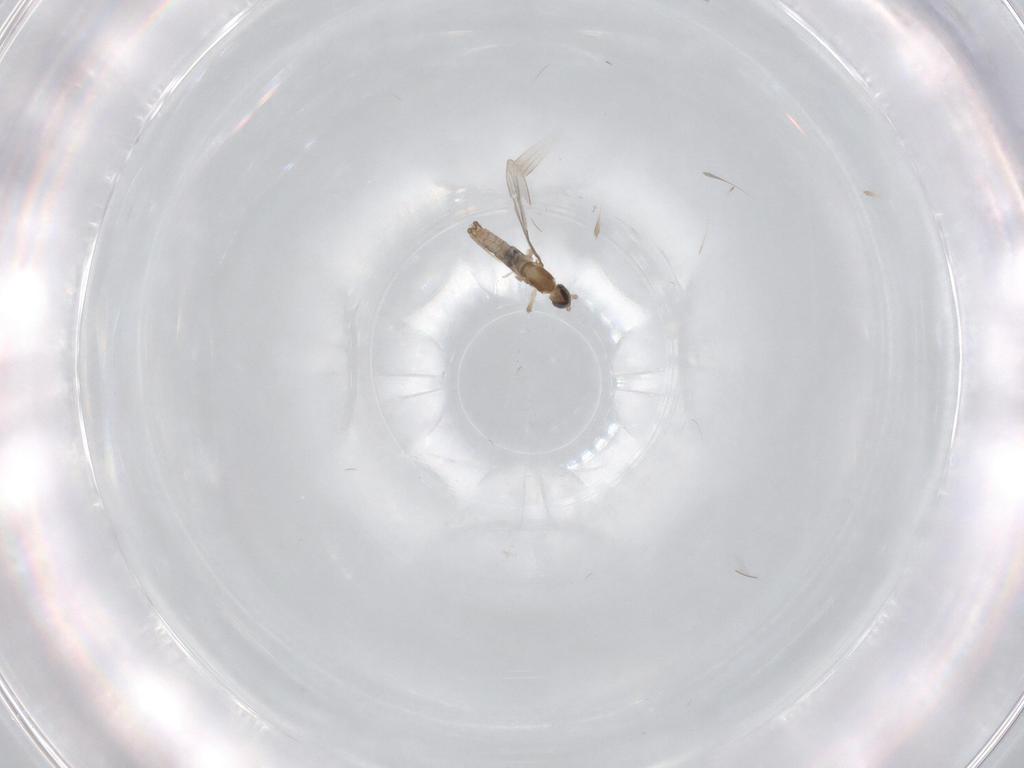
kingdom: Animalia
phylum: Arthropoda
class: Insecta
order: Diptera
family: Cecidomyiidae
